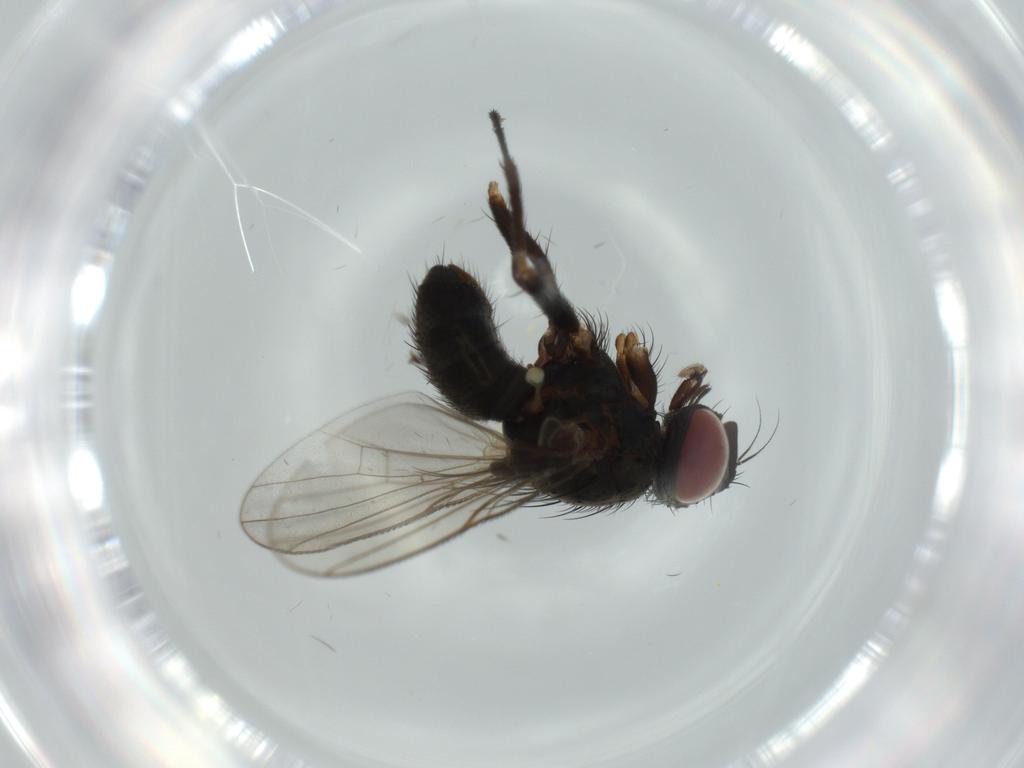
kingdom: Animalia
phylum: Arthropoda
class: Insecta
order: Diptera
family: Muscidae
